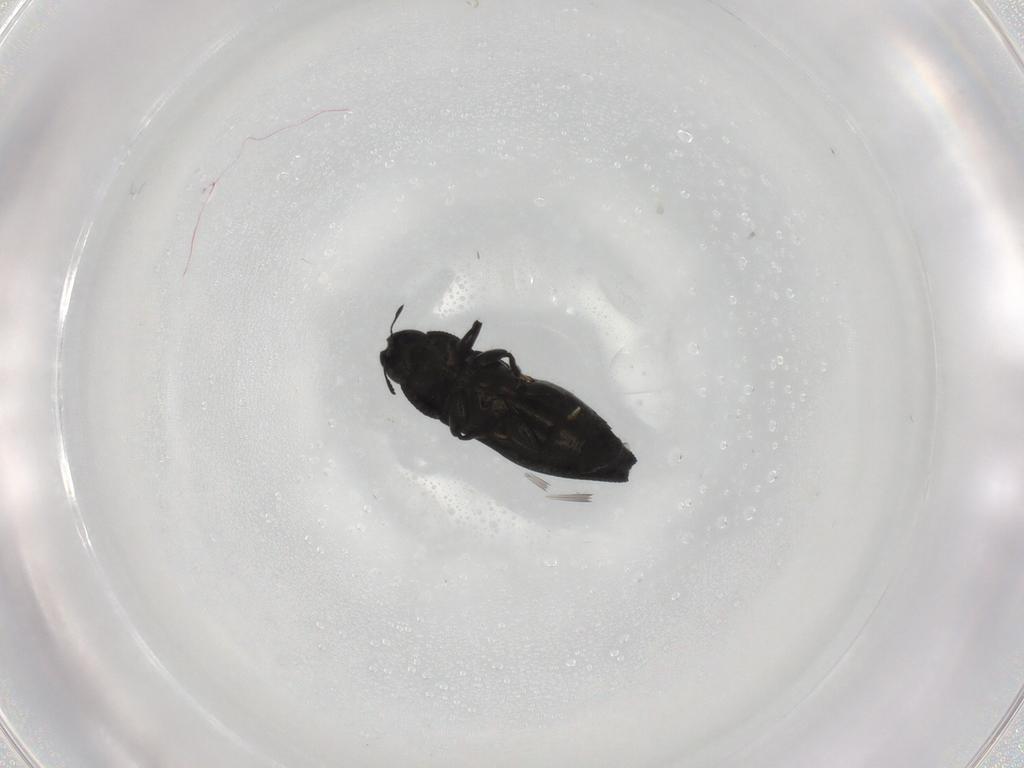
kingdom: Animalia
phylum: Arthropoda
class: Insecta
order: Coleoptera
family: Buprestidae
